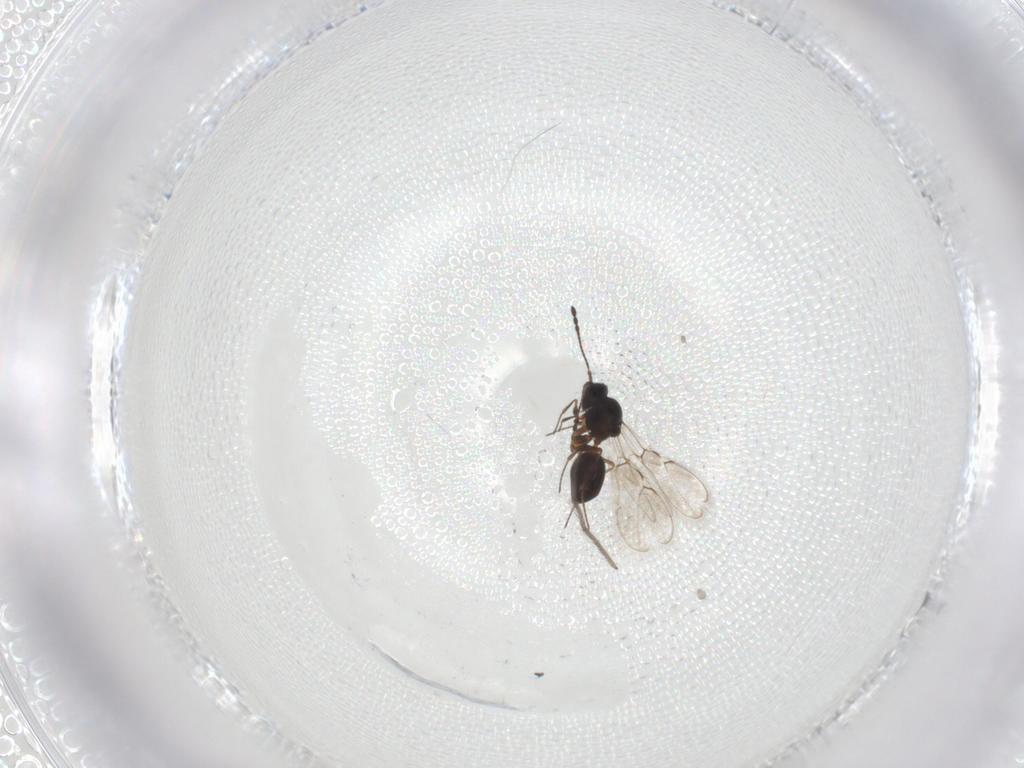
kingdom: Animalia
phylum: Arthropoda
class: Insecta
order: Hymenoptera
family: Figitidae
